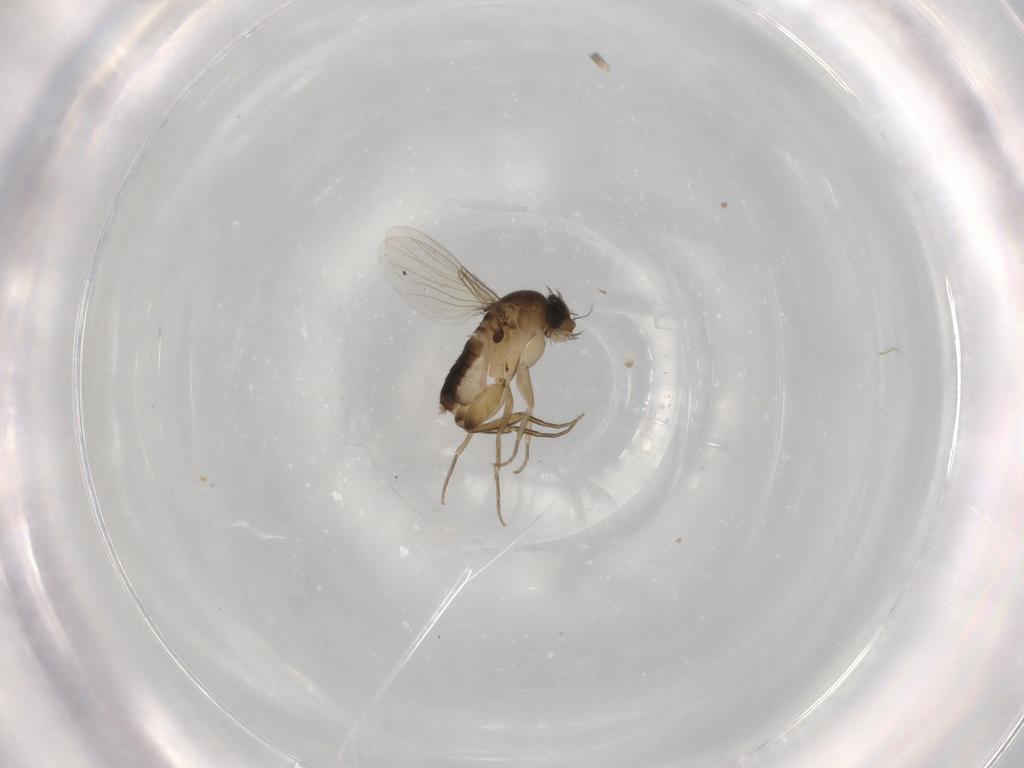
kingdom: Animalia
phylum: Arthropoda
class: Insecta
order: Diptera
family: Phoridae
